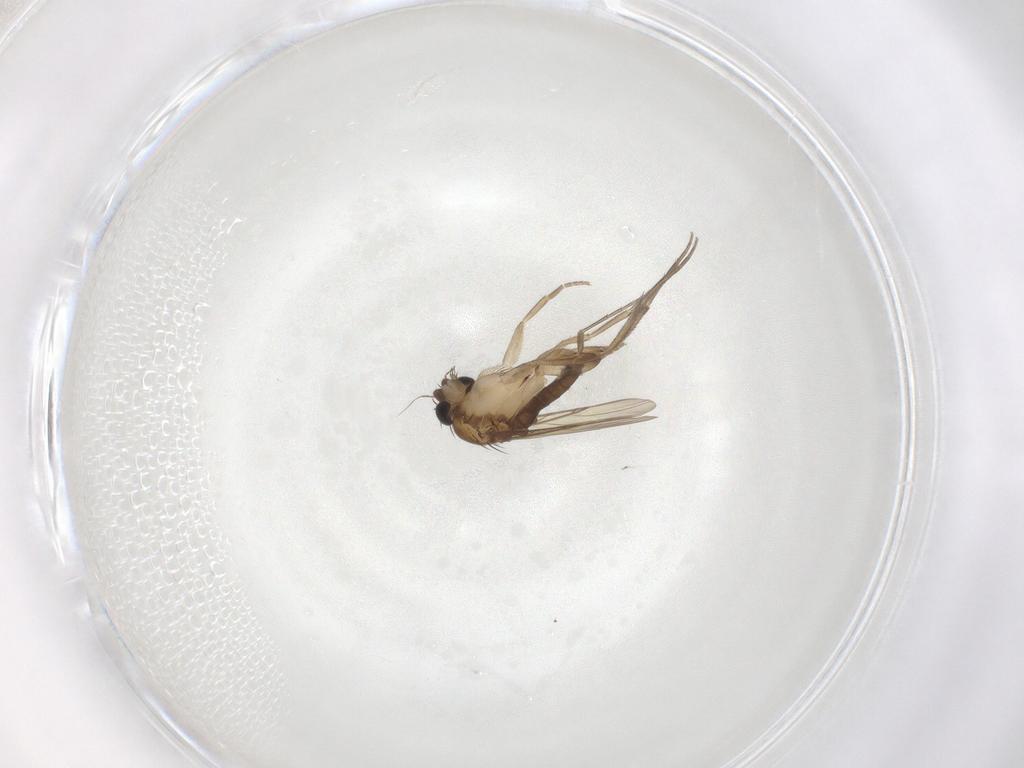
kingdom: Animalia
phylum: Arthropoda
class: Insecta
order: Diptera
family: Phoridae
